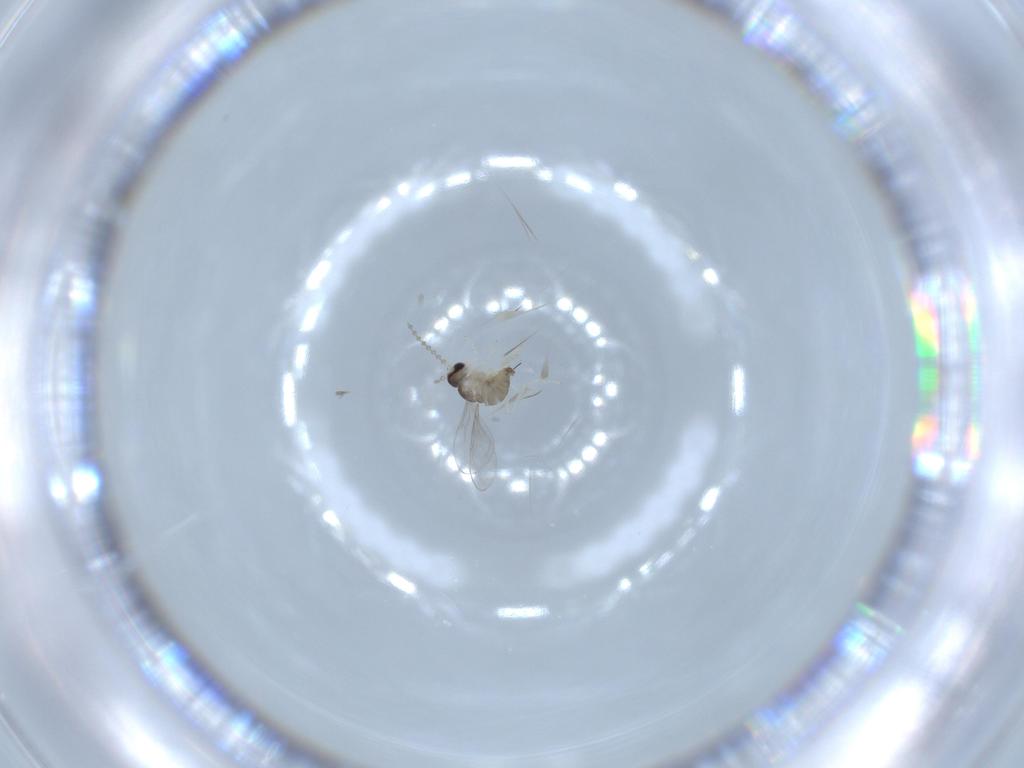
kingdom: Animalia
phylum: Arthropoda
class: Insecta
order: Diptera
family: Cecidomyiidae
